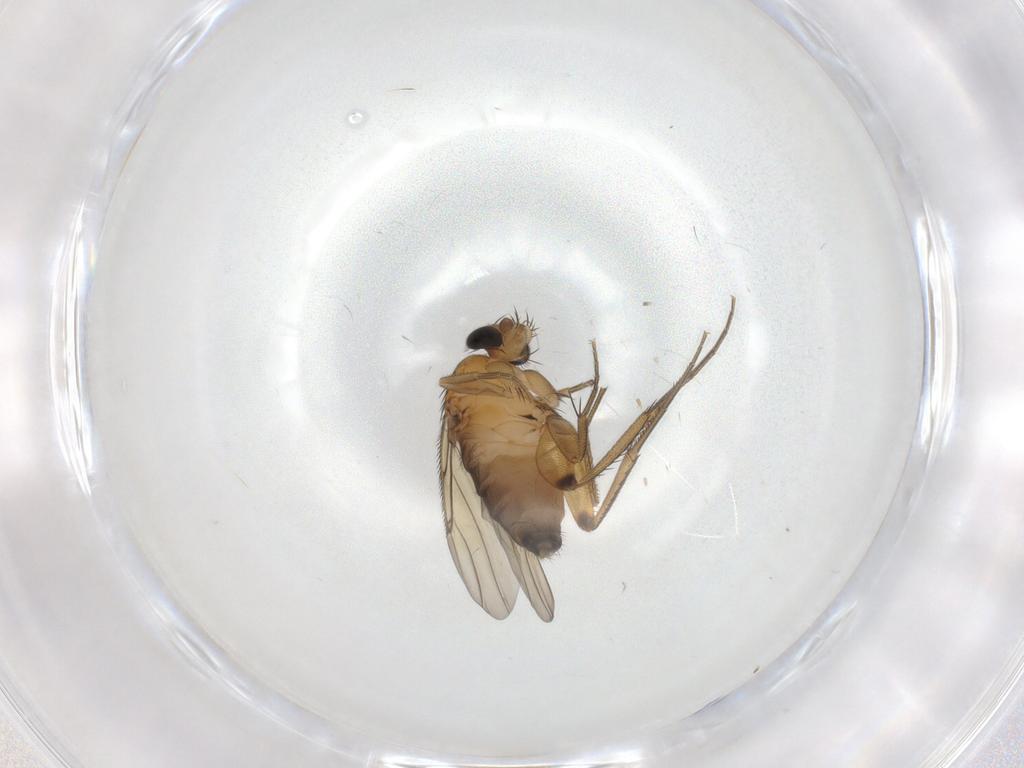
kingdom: Animalia
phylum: Arthropoda
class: Insecta
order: Diptera
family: Phoridae
